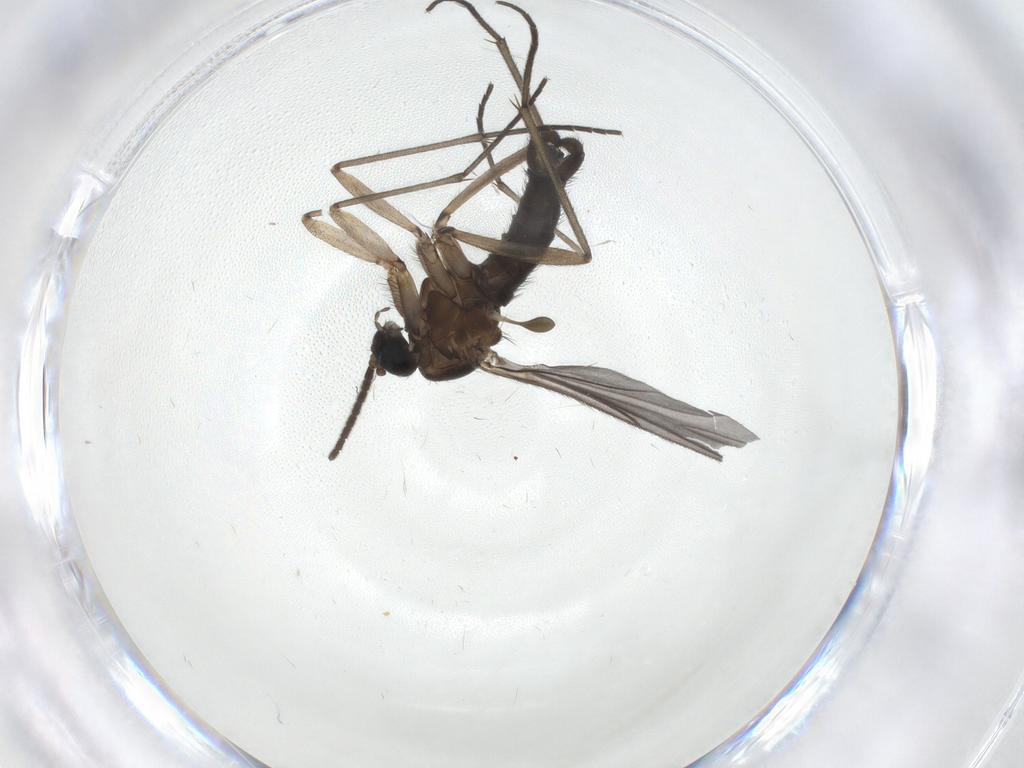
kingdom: Animalia
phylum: Arthropoda
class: Insecta
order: Diptera
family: Sciaridae
